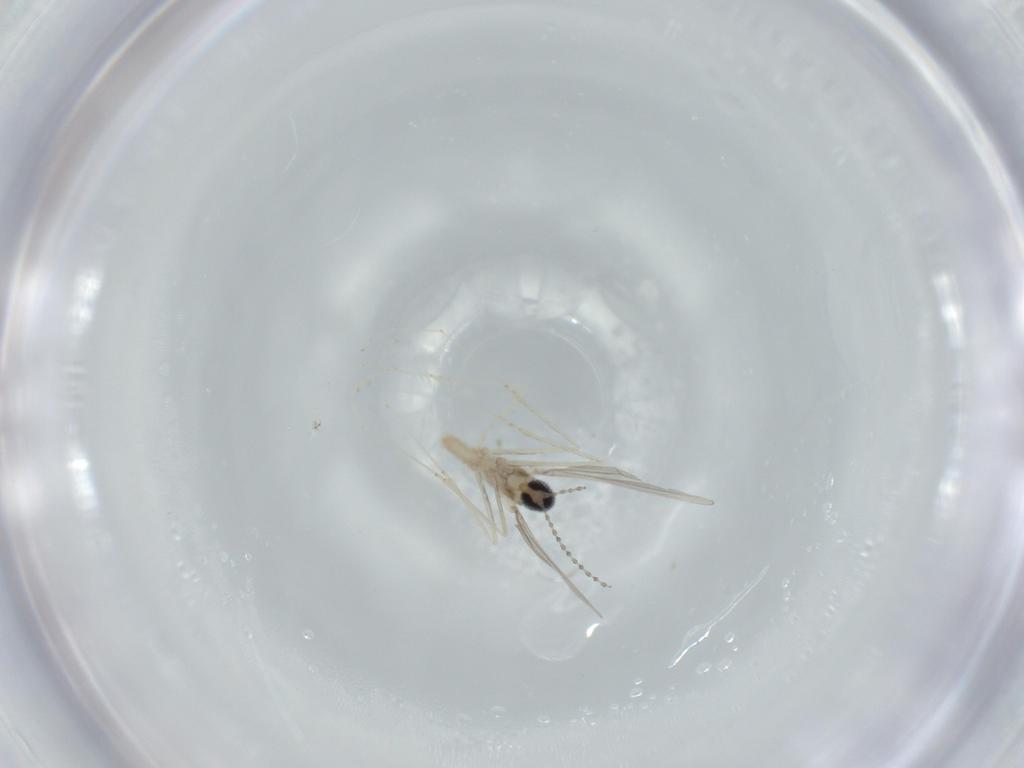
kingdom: Animalia
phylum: Arthropoda
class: Insecta
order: Diptera
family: Cecidomyiidae
